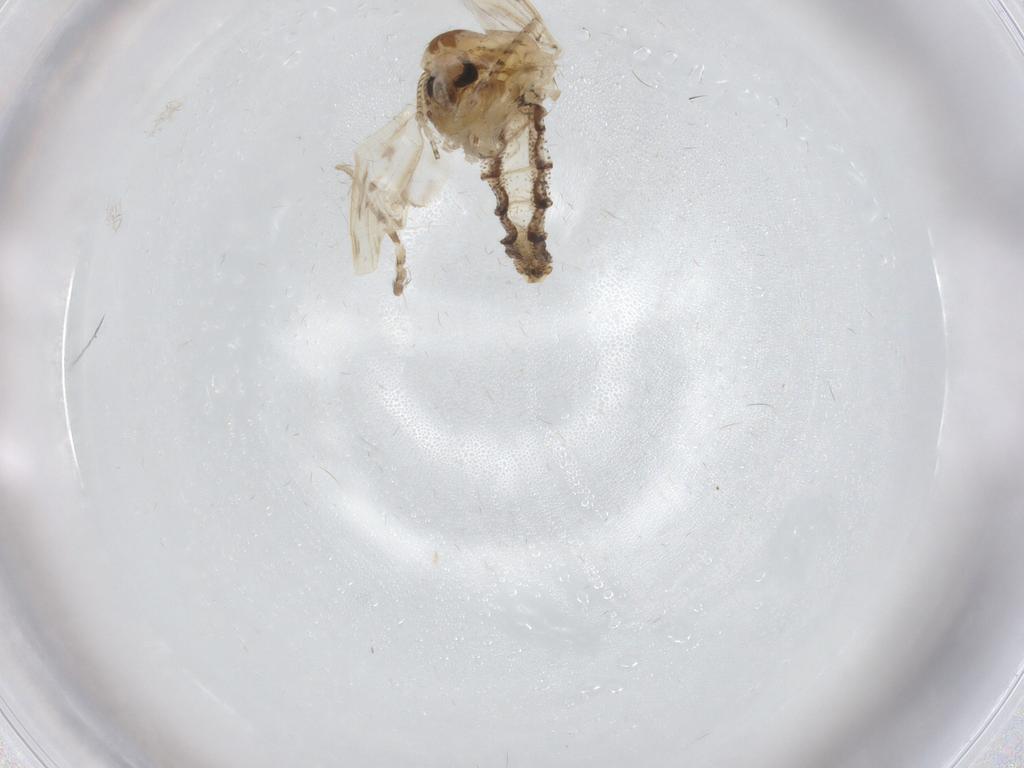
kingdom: Animalia
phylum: Arthropoda
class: Insecta
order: Diptera
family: Chaoboridae
